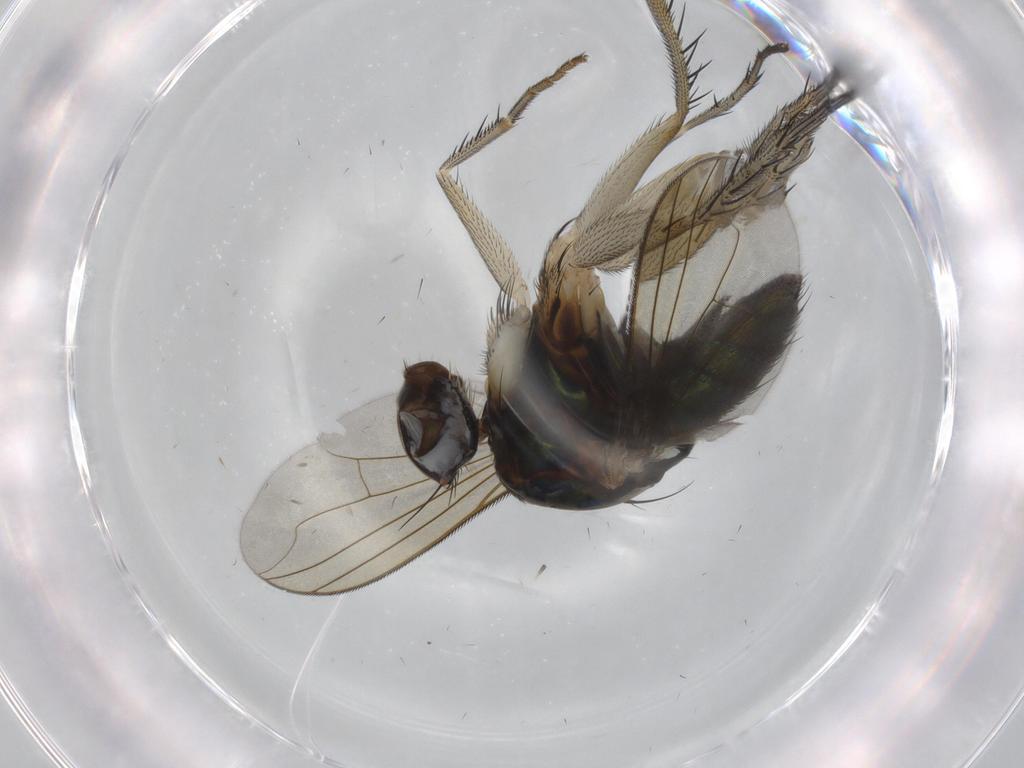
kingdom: Animalia
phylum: Arthropoda
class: Insecta
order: Diptera
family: Dolichopodidae
